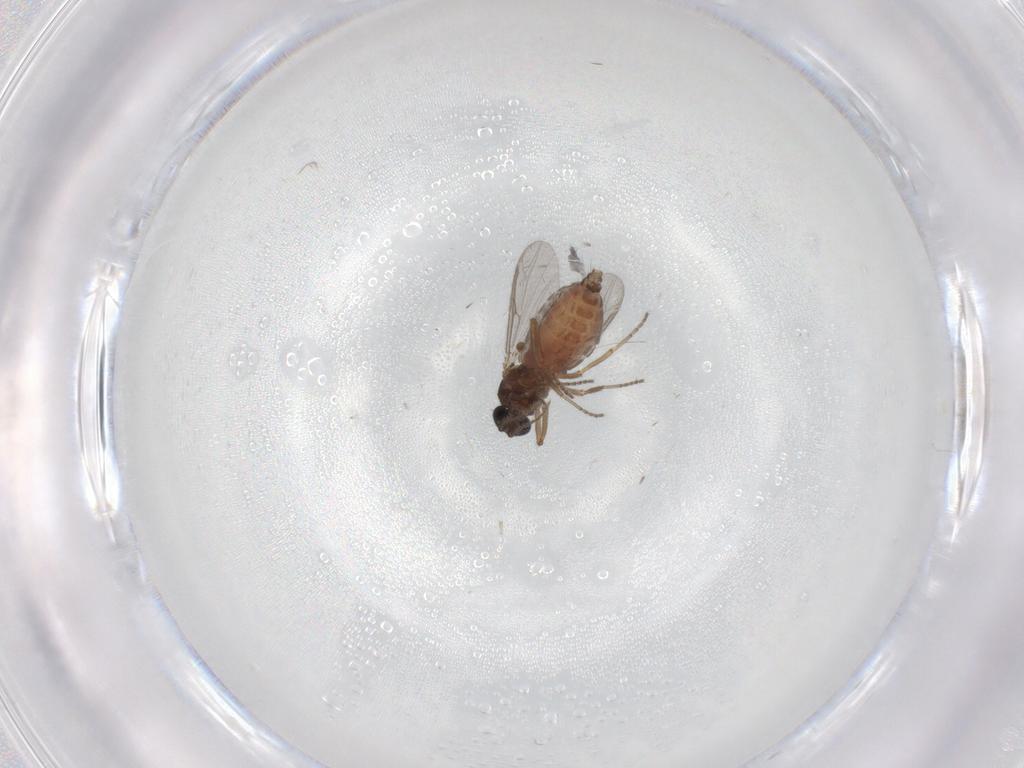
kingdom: Animalia
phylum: Arthropoda
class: Insecta
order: Diptera
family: Ceratopogonidae
